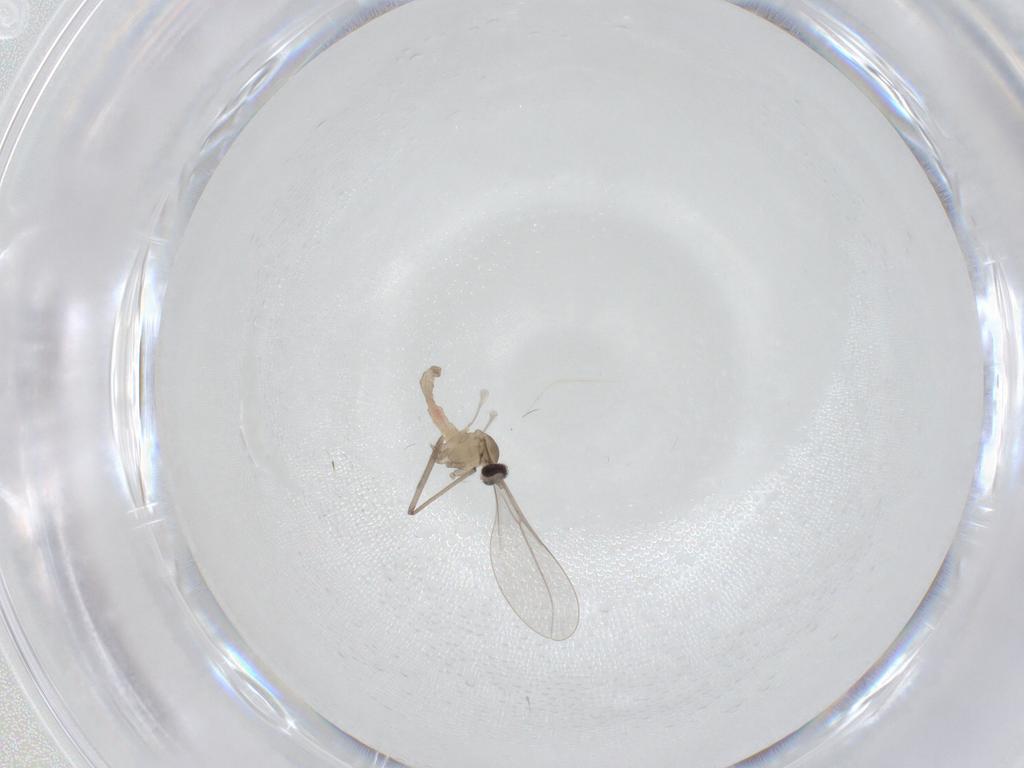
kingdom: Animalia
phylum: Arthropoda
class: Insecta
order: Diptera
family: Cecidomyiidae
